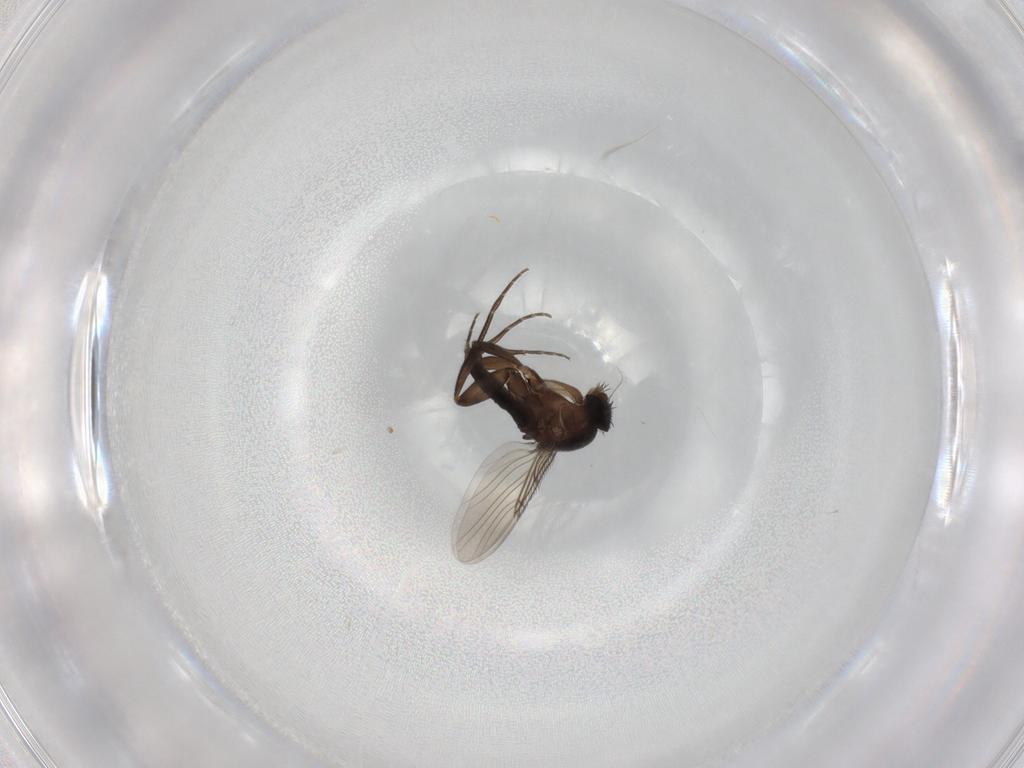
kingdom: Animalia
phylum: Arthropoda
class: Insecta
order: Diptera
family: Phoridae
